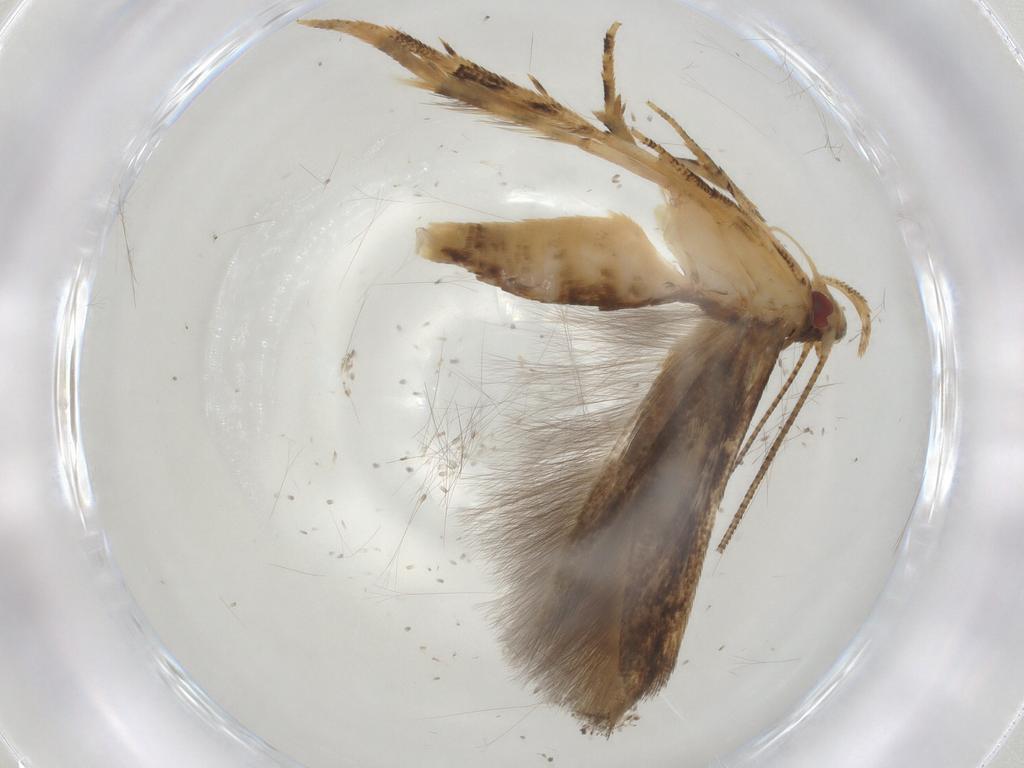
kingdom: Animalia
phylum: Arthropoda
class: Insecta
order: Lepidoptera
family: Tineidae
